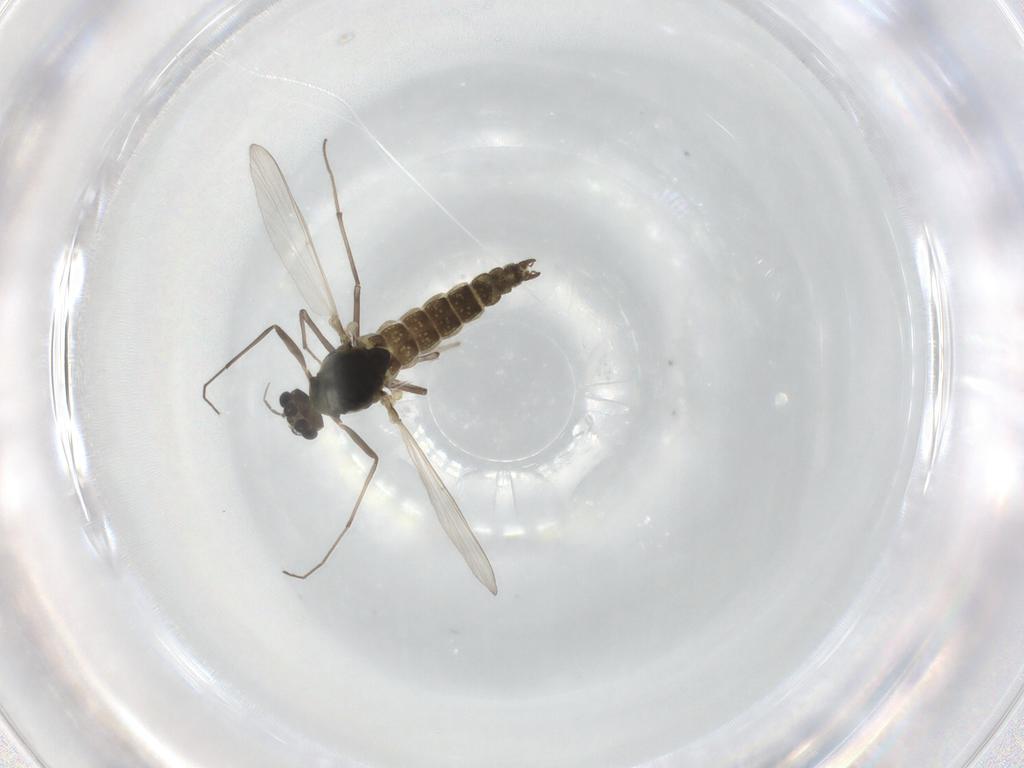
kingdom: Animalia
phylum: Arthropoda
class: Insecta
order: Diptera
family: Chironomidae
